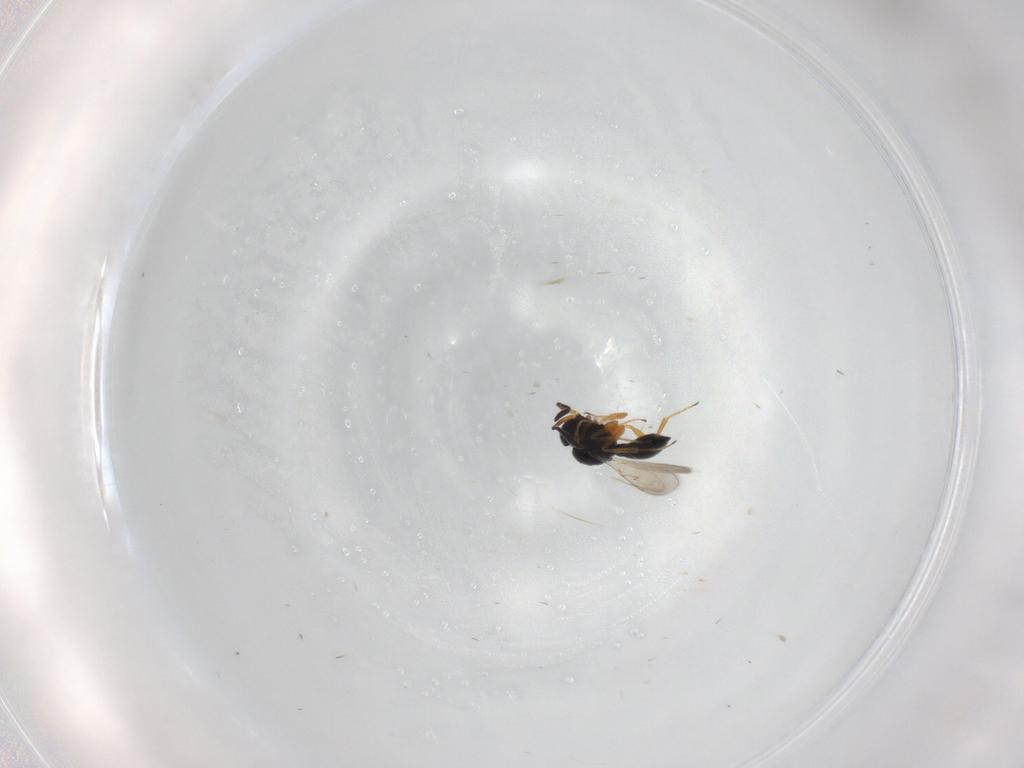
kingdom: Animalia
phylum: Arthropoda
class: Insecta
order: Hymenoptera
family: Scelionidae
